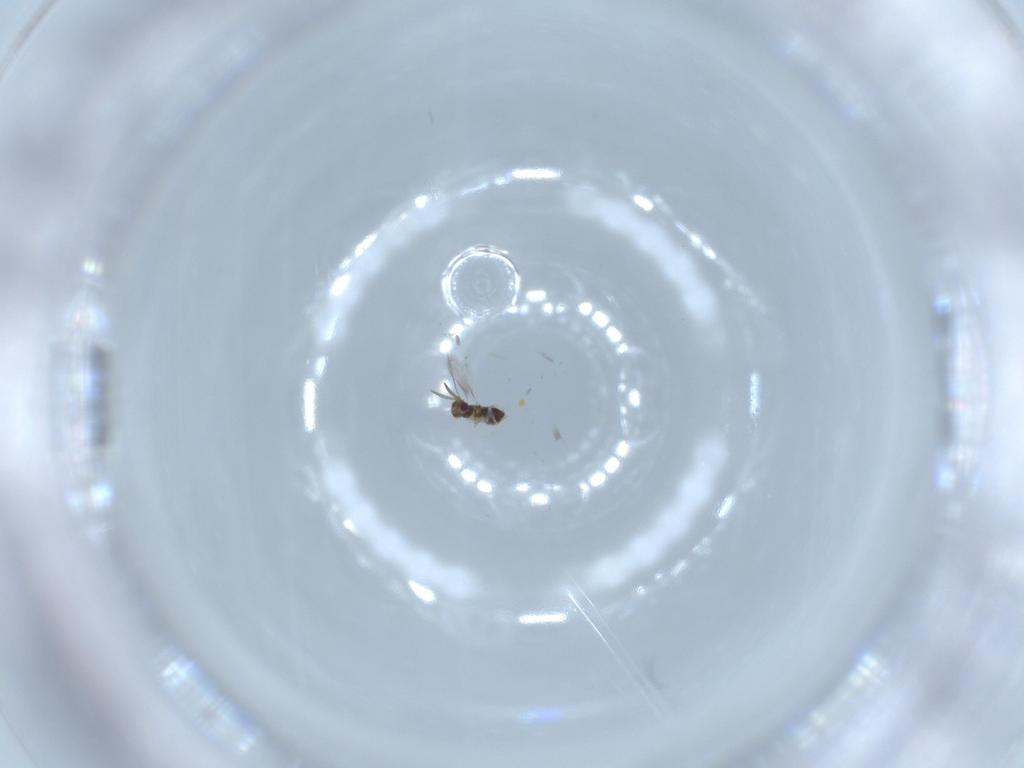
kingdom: Animalia
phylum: Arthropoda
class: Insecta
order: Hymenoptera
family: Aphelinidae
